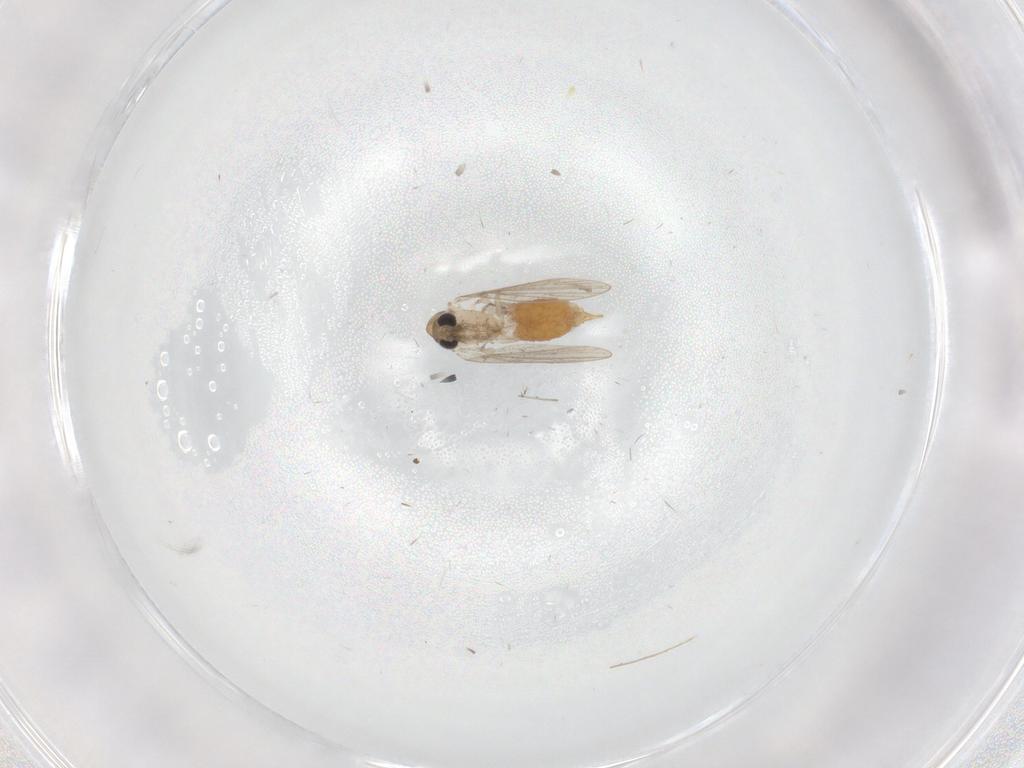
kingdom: Animalia
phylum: Arthropoda
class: Insecta
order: Diptera
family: Psychodidae
